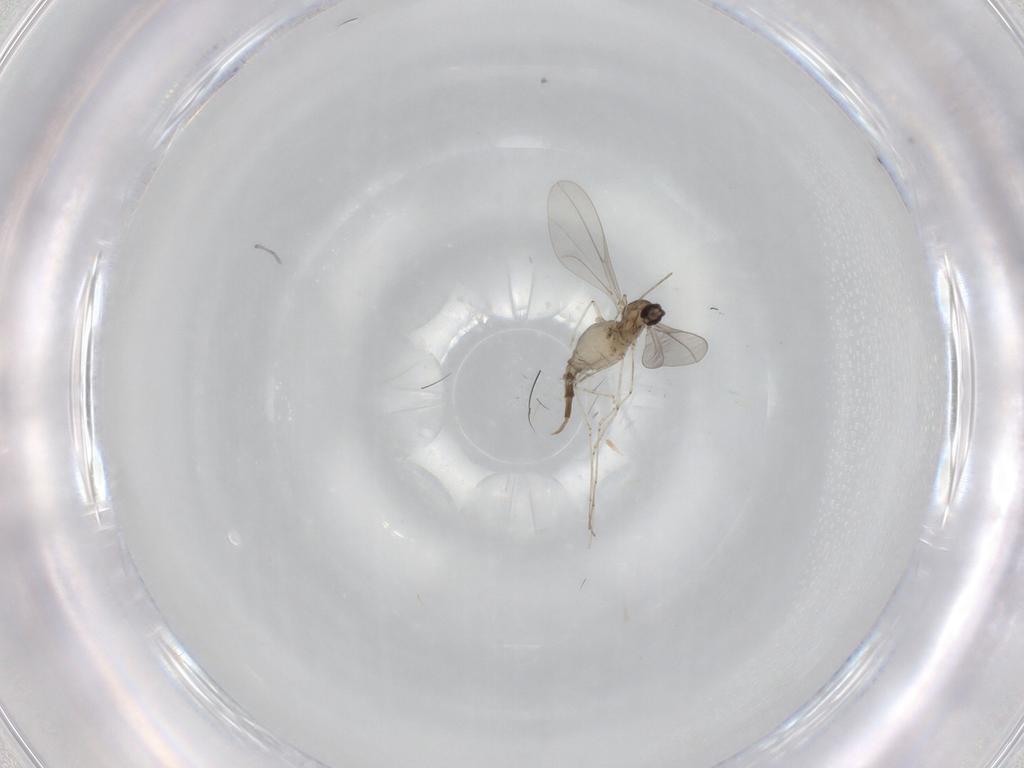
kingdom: Animalia
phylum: Arthropoda
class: Insecta
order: Diptera
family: Cecidomyiidae
